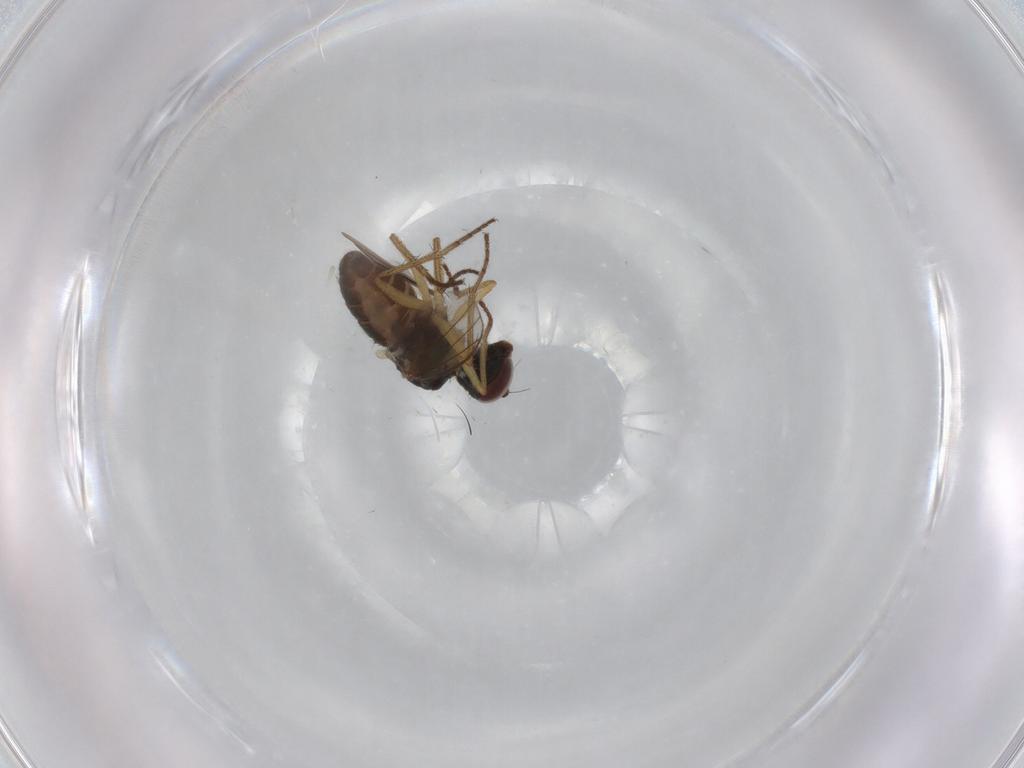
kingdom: Animalia
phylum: Arthropoda
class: Insecta
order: Diptera
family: Dolichopodidae
